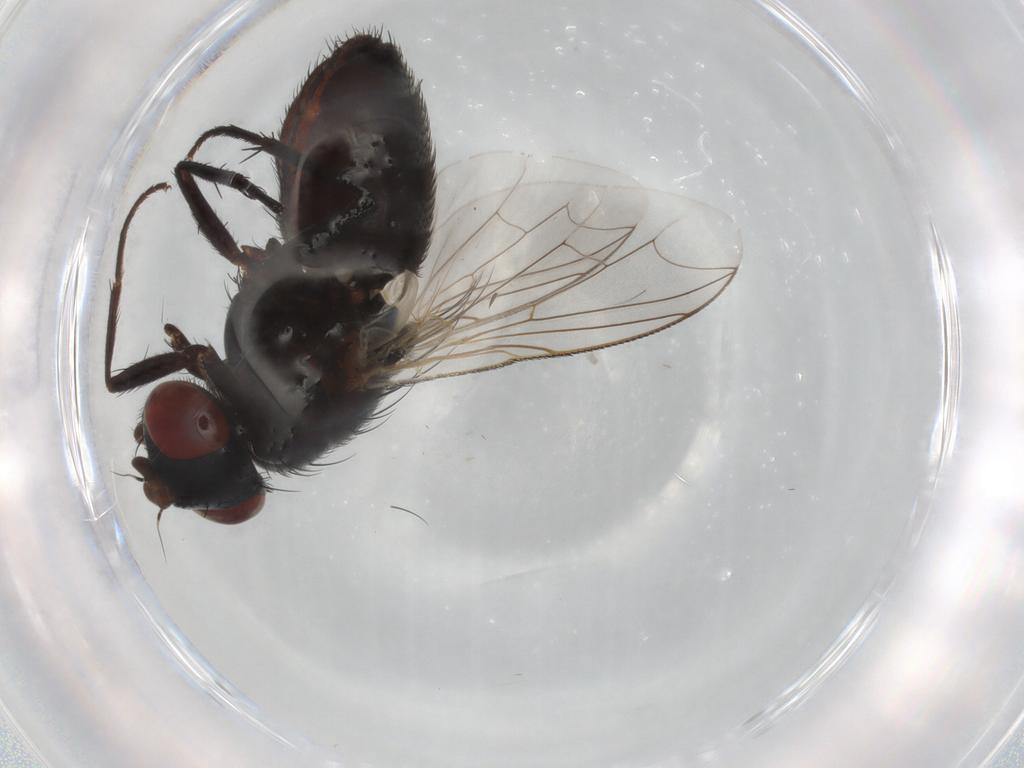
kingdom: Animalia
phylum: Arthropoda
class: Insecta
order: Diptera
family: Sarcophagidae
